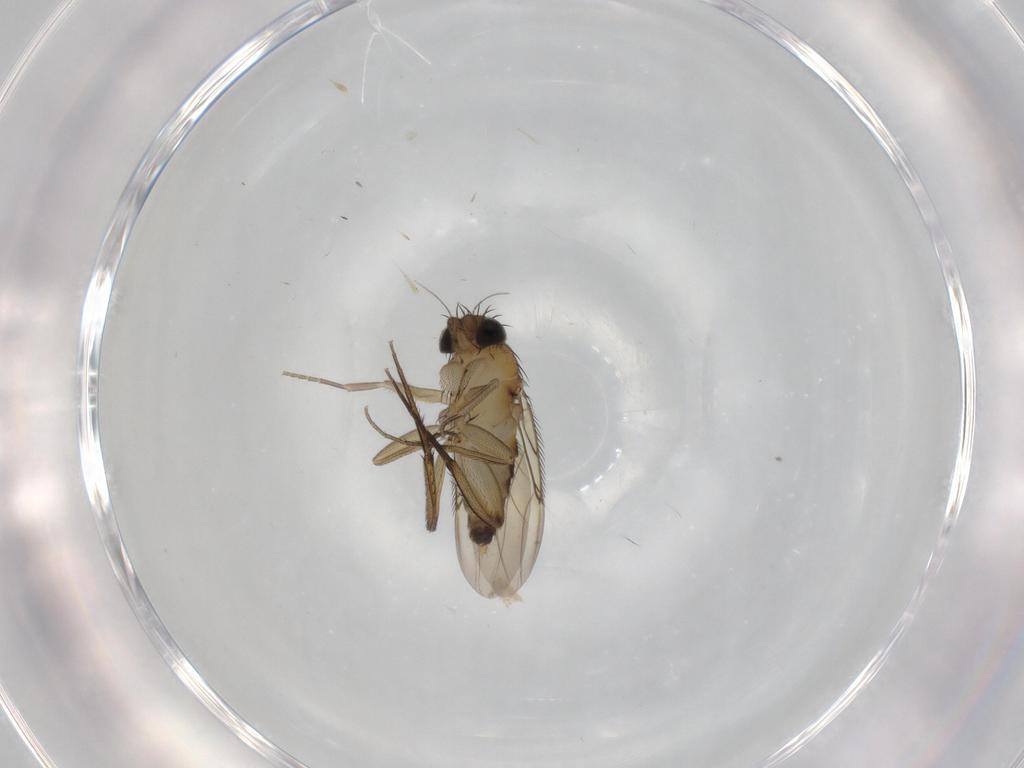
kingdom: Animalia
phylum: Arthropoda
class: Insecta
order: Diptera
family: Phoridae
